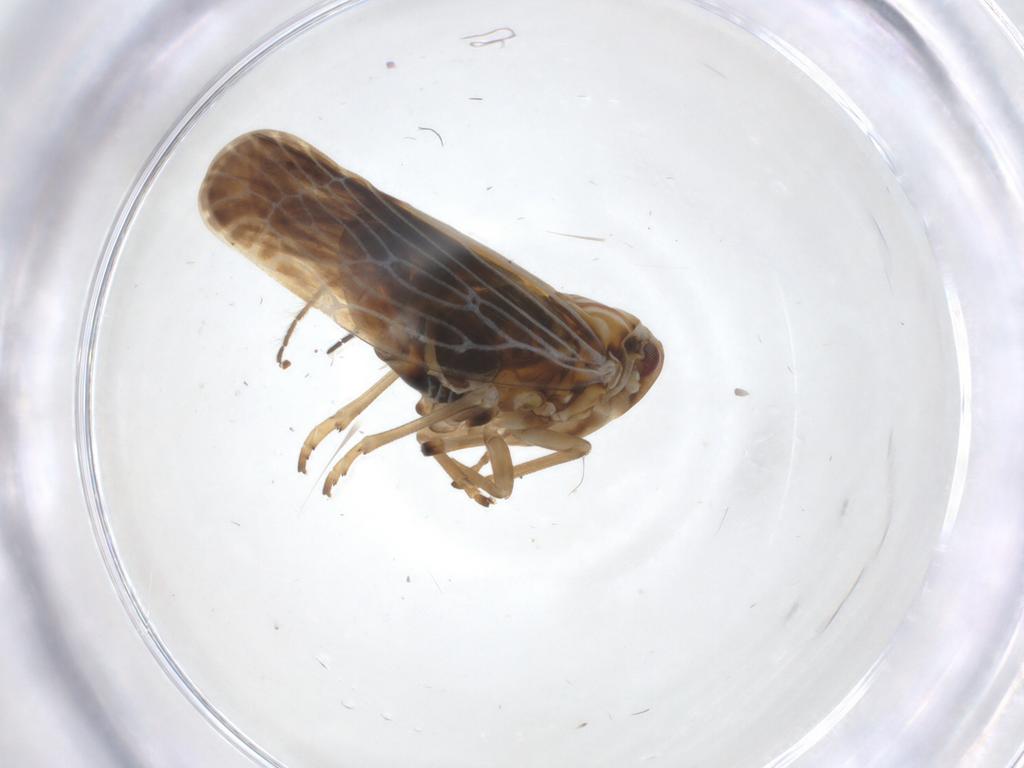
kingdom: Animalia
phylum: Arthropoda
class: Insecta
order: Hemiptera
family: Derbidae
